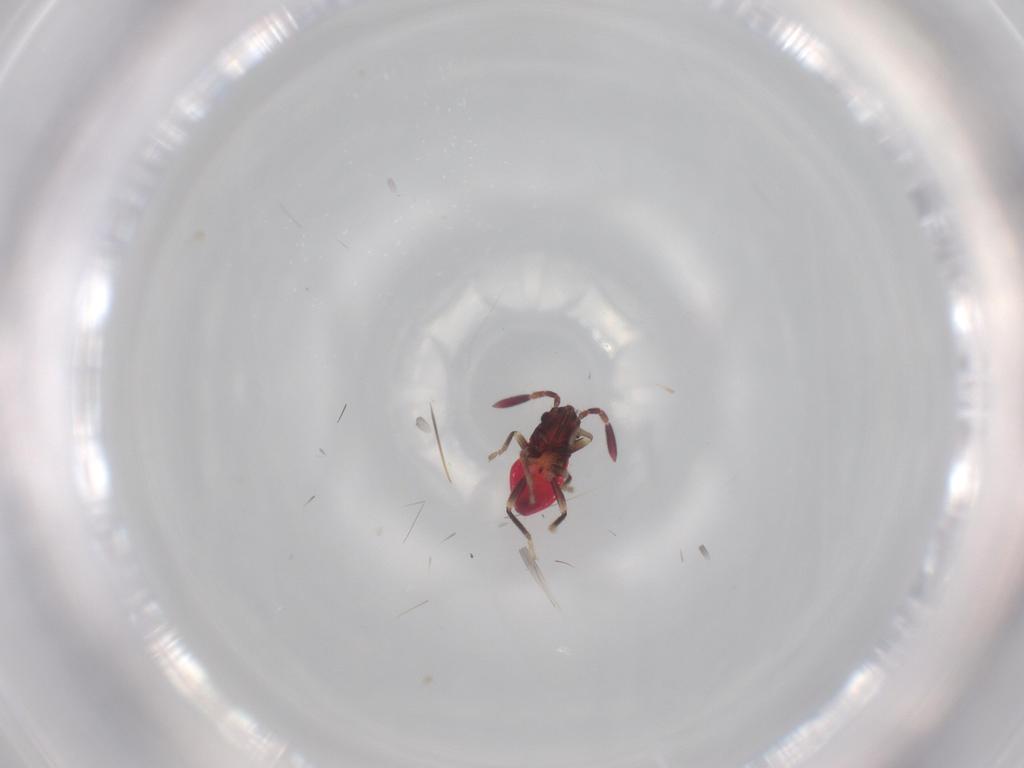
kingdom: Animalia
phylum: Arthropoda
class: Insecta
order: Hemiptera
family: Rhyparochromidae
